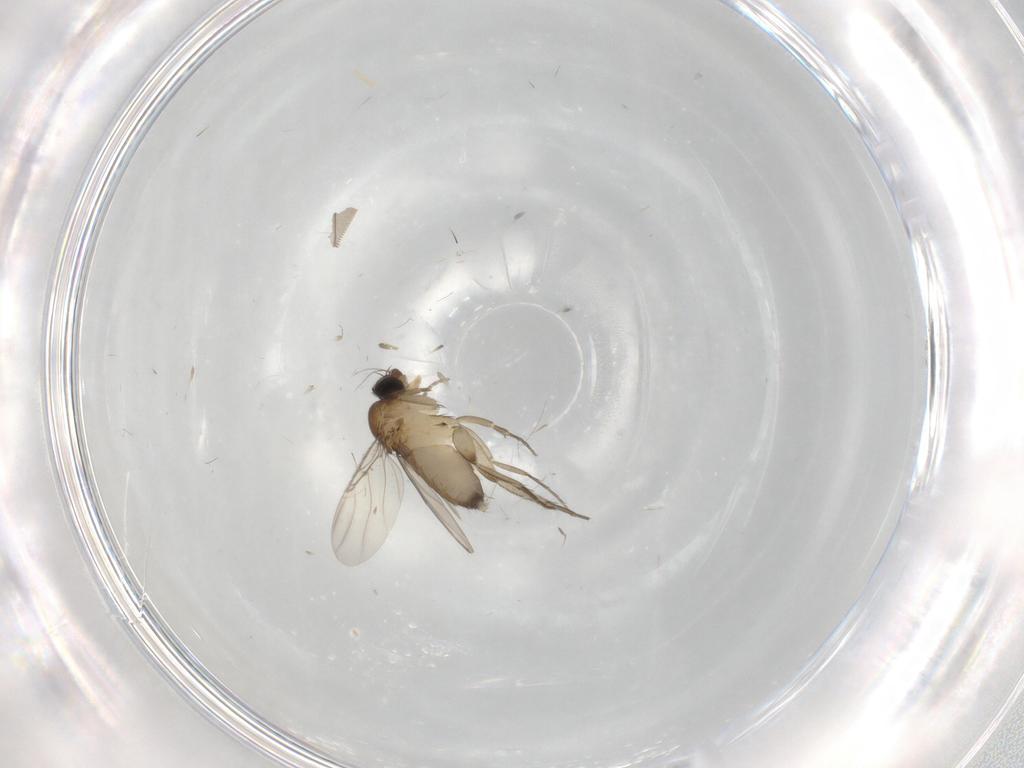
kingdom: Animalia
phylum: Arthropoda
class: Insecta
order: Diptera
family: Phoridae
